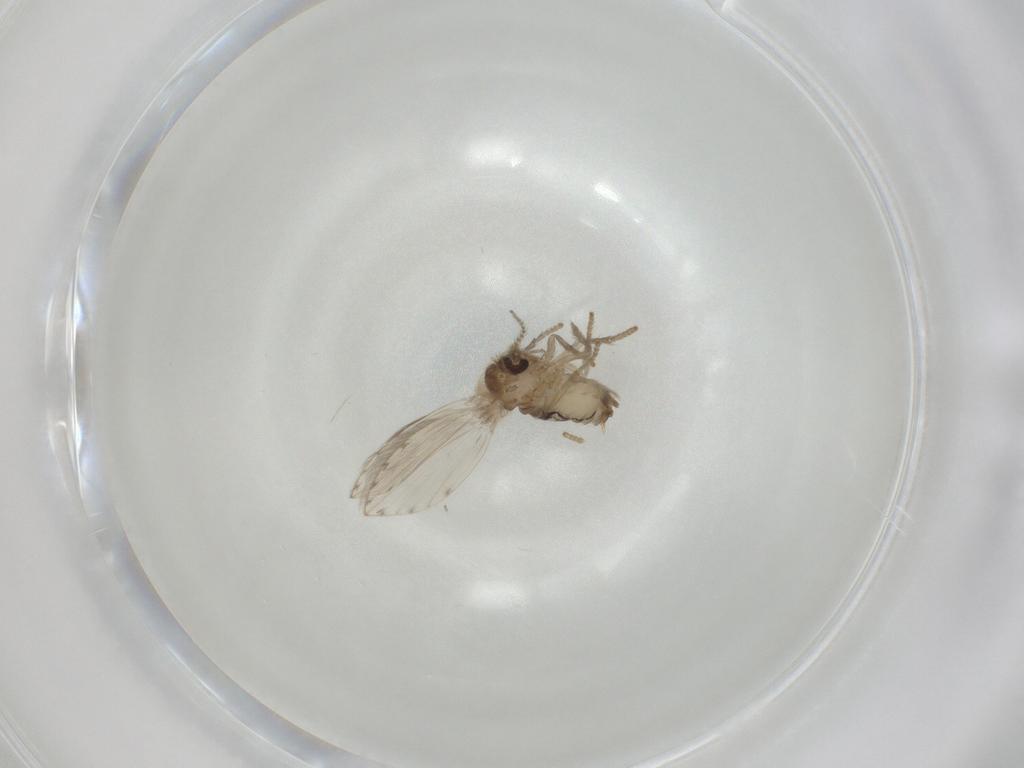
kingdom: Animalia
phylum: Arthropoda
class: Insecta
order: Diptera
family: Psychodidae
